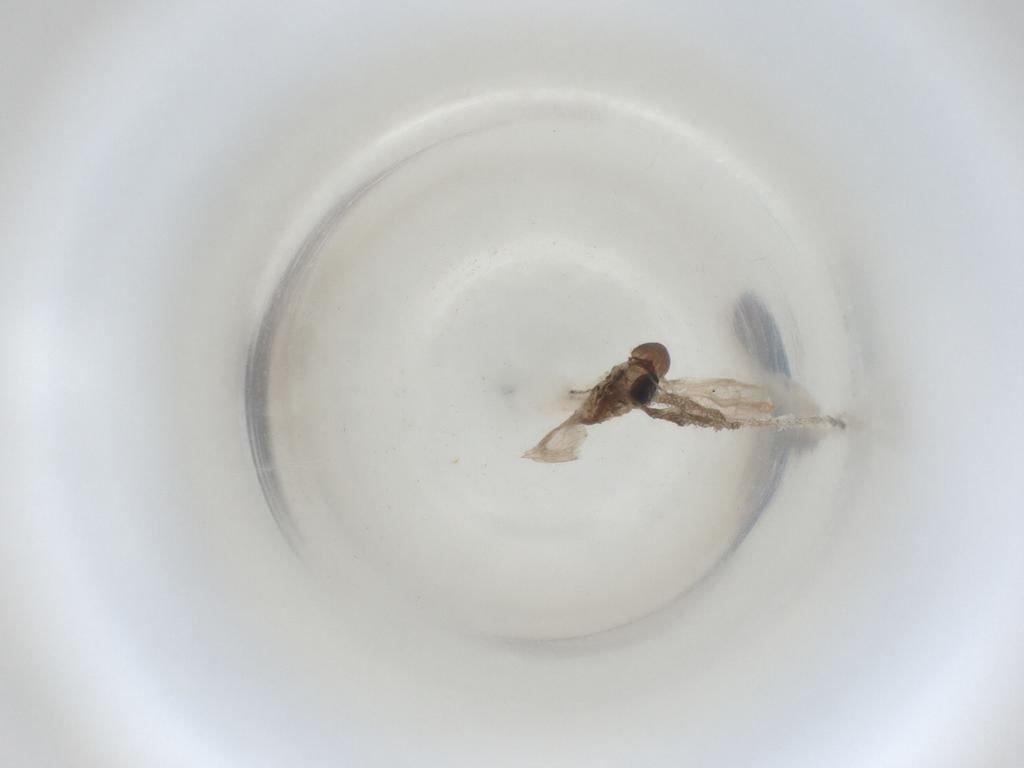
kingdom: Animalia
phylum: Arthropoda
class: Insecta
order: Diptera
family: Cecidomyiidae
